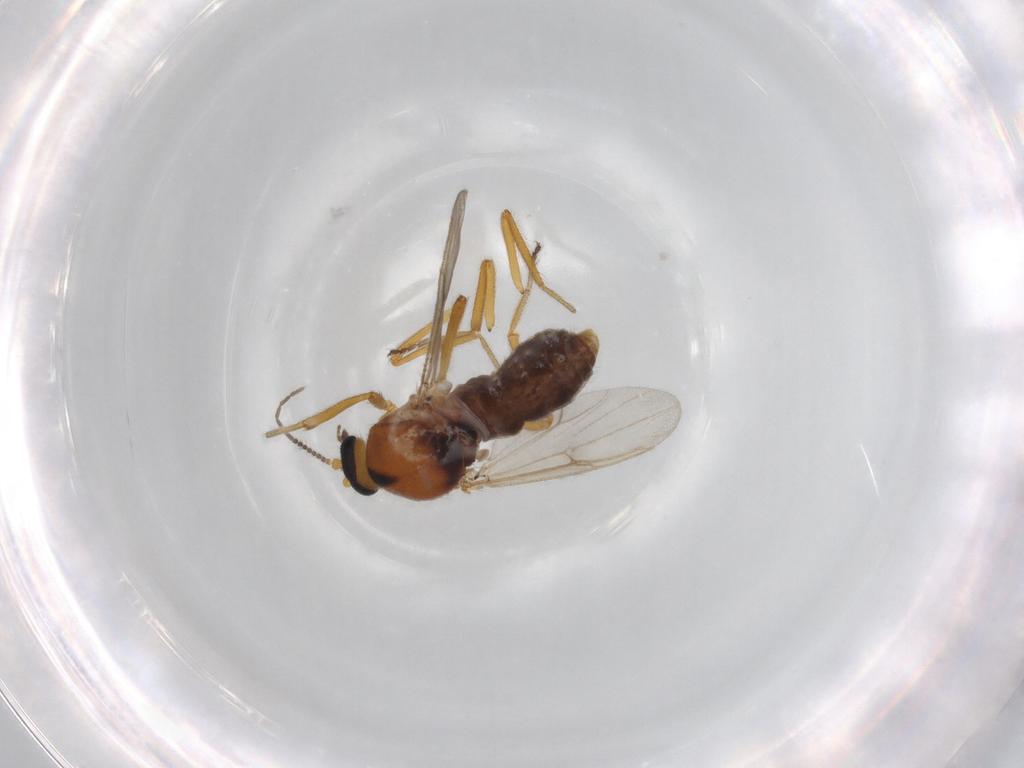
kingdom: Animalia
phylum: Arthropoda
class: Insecta
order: Diptera
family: Ceratopogonidae
